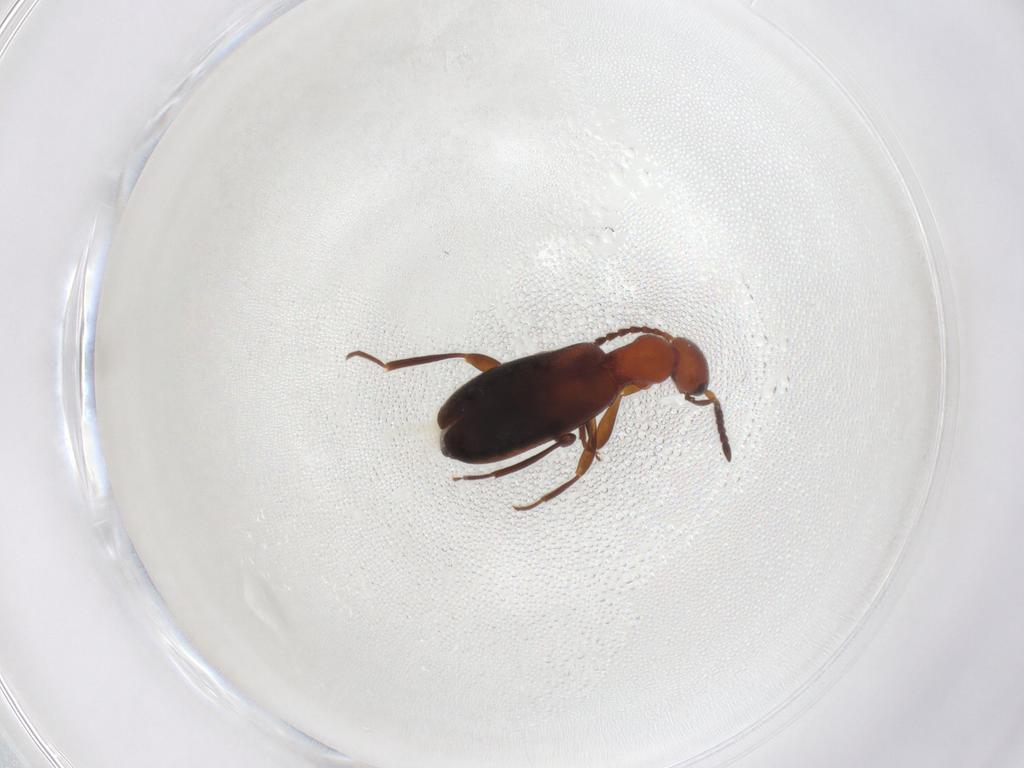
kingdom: Animalia
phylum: Arthropoda
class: Insecta
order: Coleoptera
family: Anthicidae
